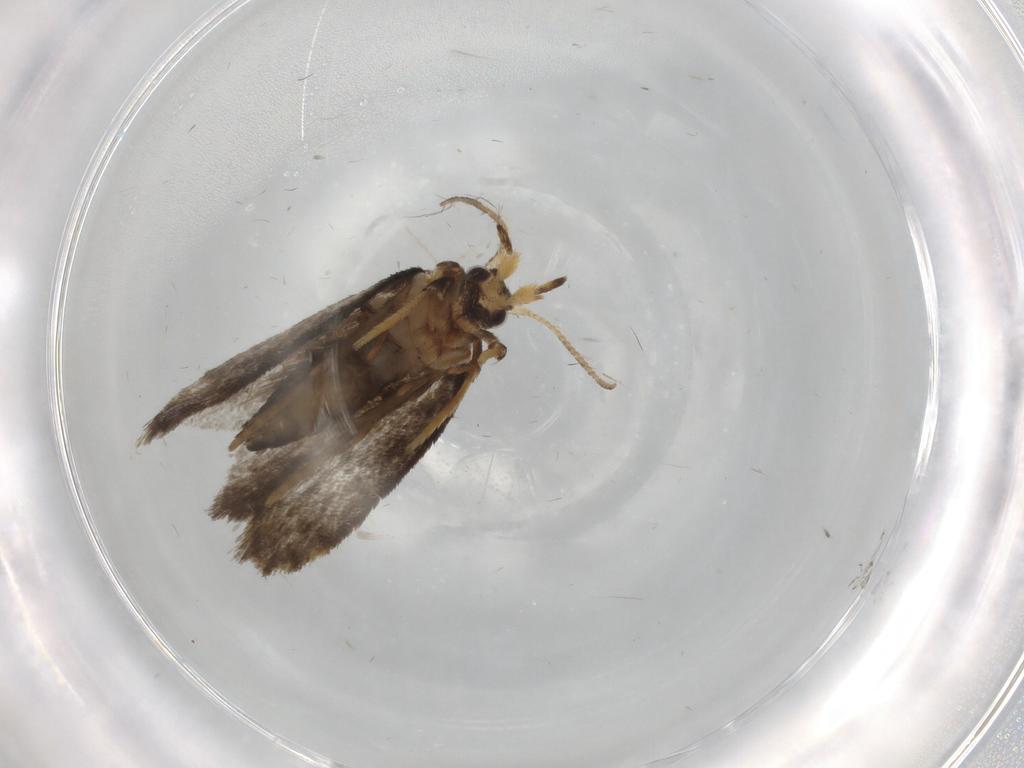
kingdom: Animalia
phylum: Arthropoda
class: Insecta
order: Lepidoptera
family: Psychidae
